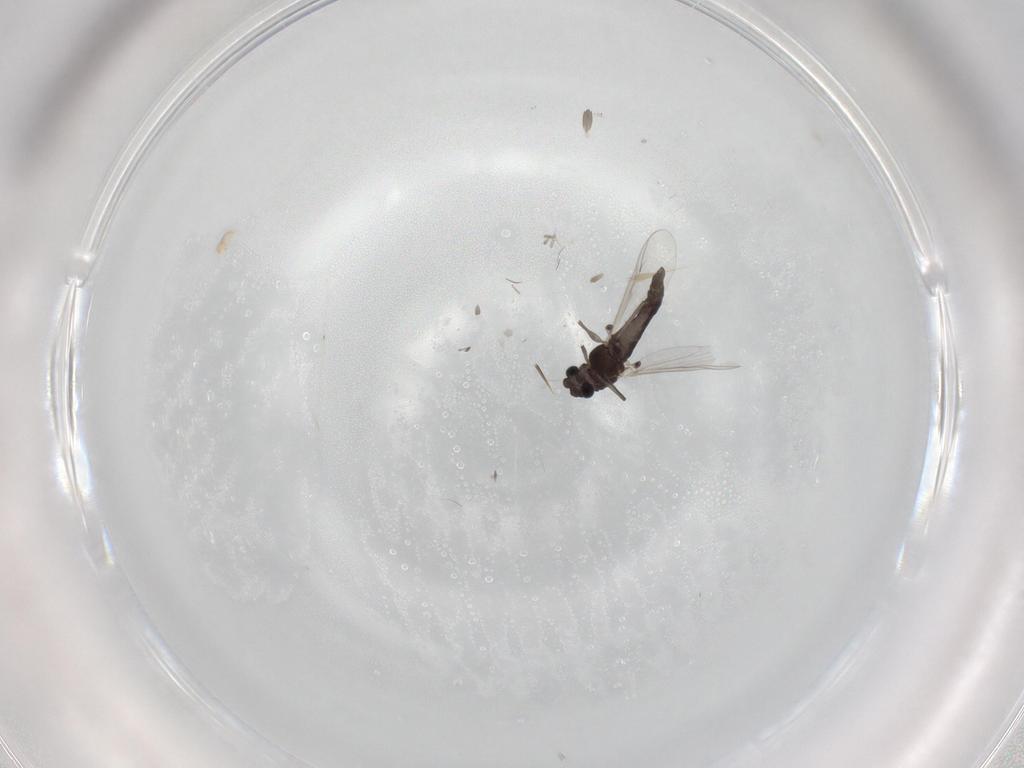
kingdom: Animalia
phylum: Arthropoda
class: Insecta
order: Diptera
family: Chironomidae
